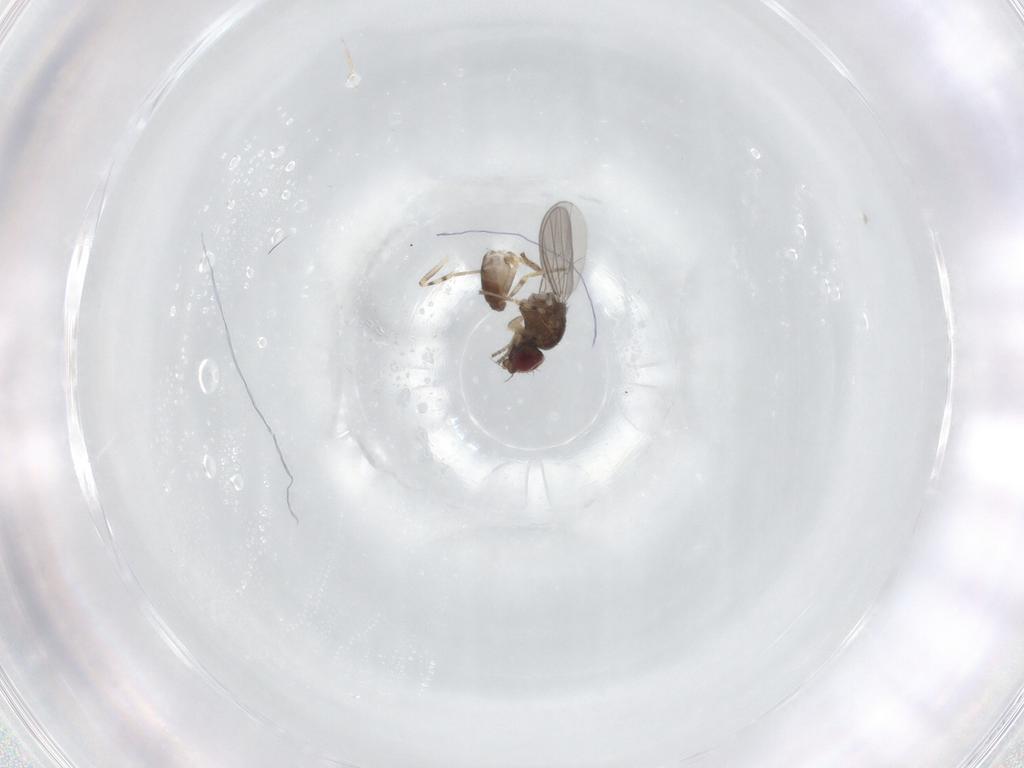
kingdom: Animalia
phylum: Arthropoda
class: Insecta
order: Diptera
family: Chloropidae
